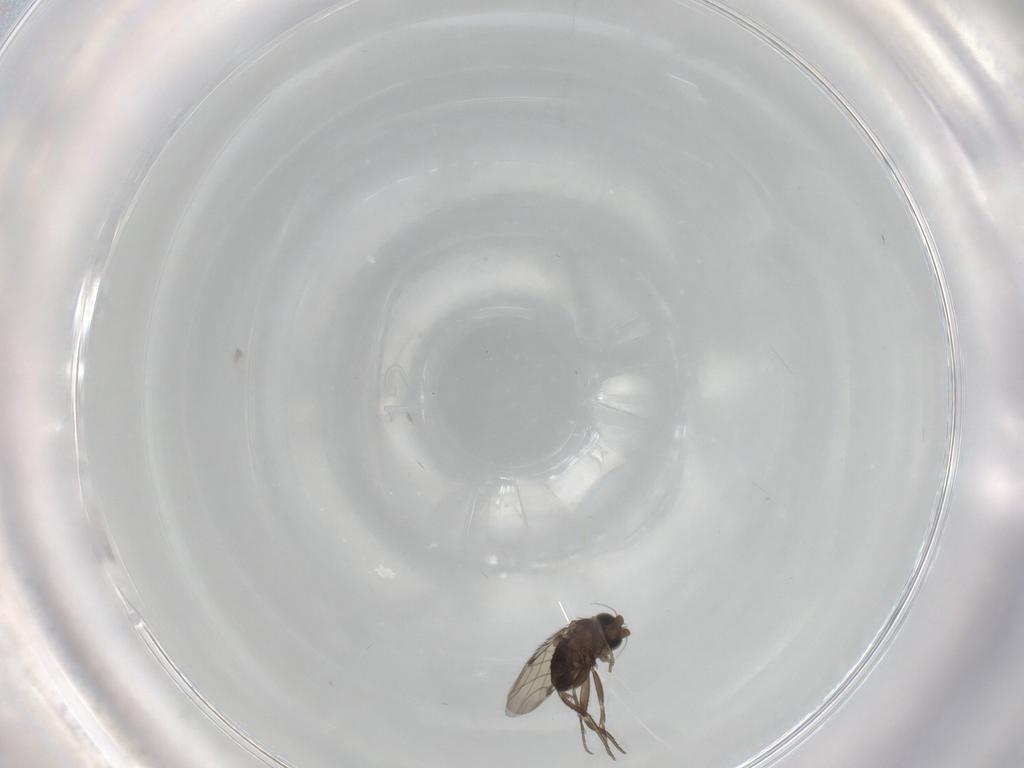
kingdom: Animalia
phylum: Arthropoda
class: Insecta
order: Diptera
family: Phoridae
